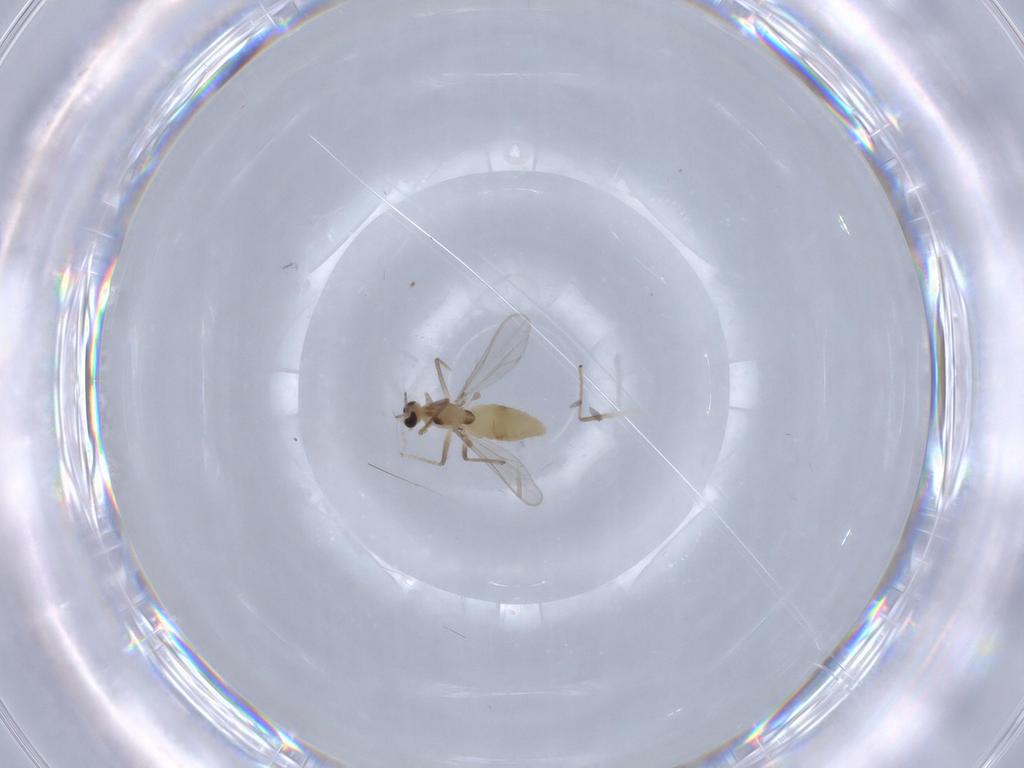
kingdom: Animalia
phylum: Arthropoda
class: Insecta
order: Diptera
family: Chironomidae
